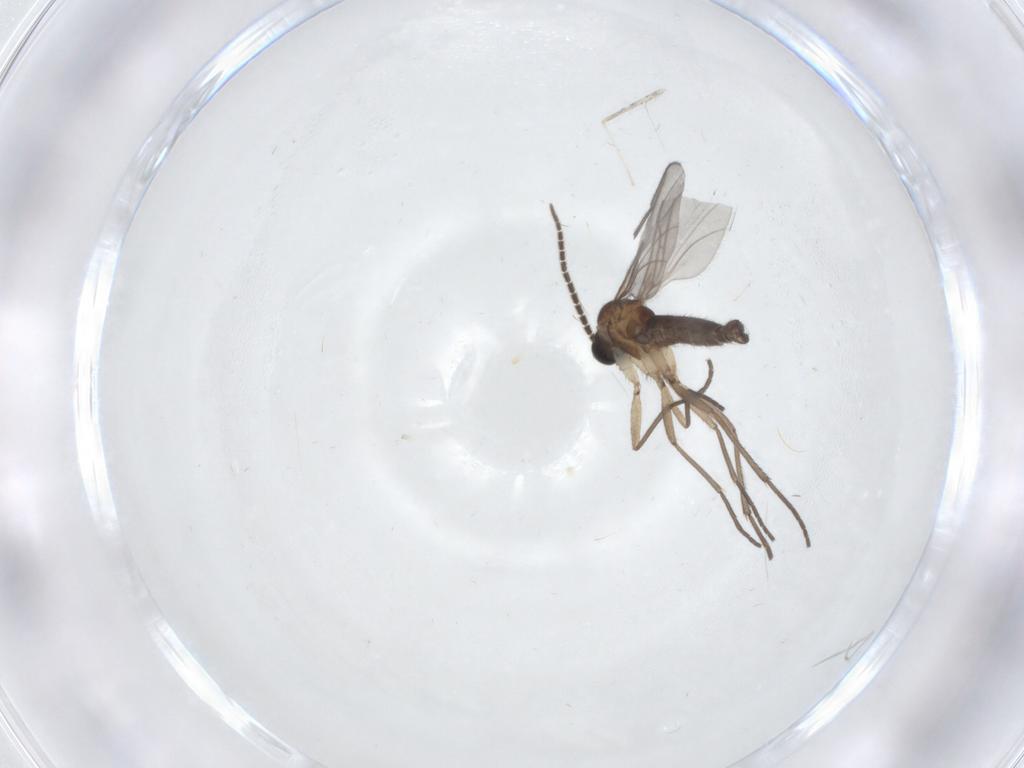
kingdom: Animalia
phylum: Arthropoda
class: Insecta
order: Diptera
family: Sciaridae
